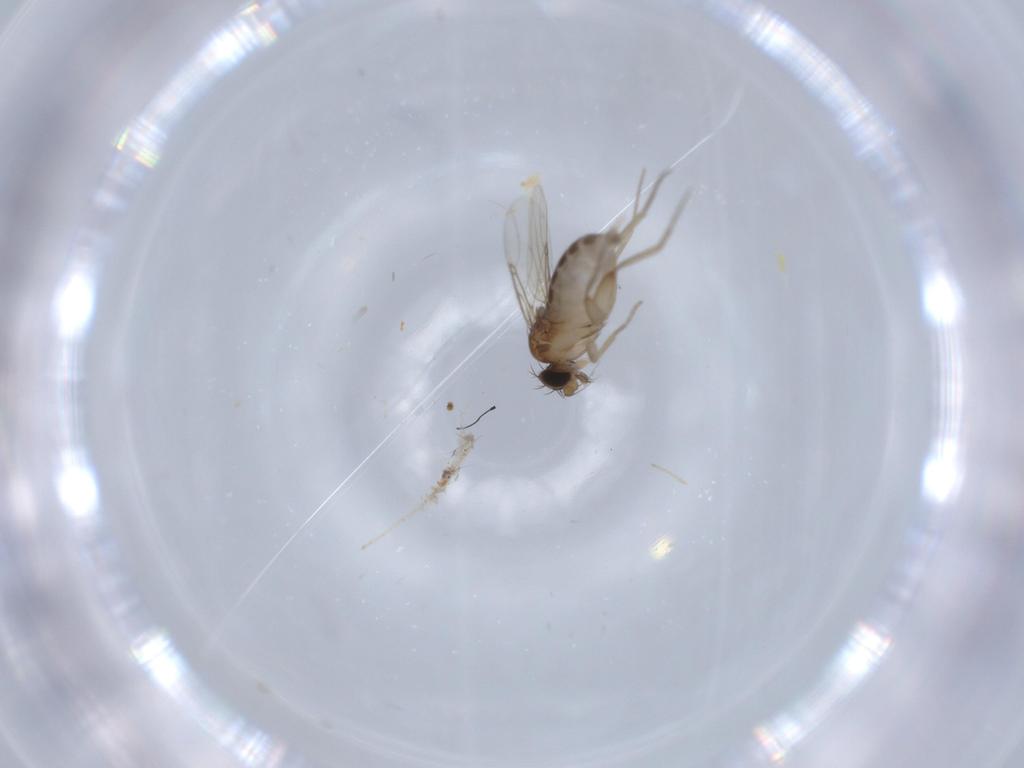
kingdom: Animalia
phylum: Arthropoda
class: Insecta
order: Diptera
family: Phoridae
